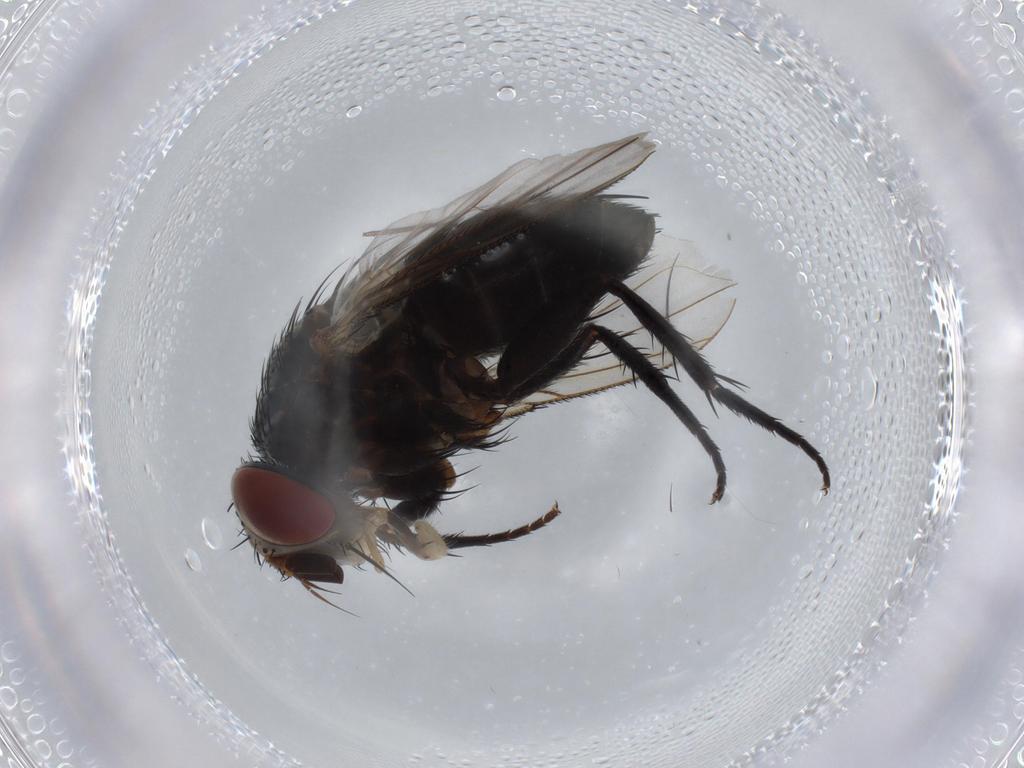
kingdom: Animalia
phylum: Arthropoda
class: Insecta
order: Diptera
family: Tachinidae
